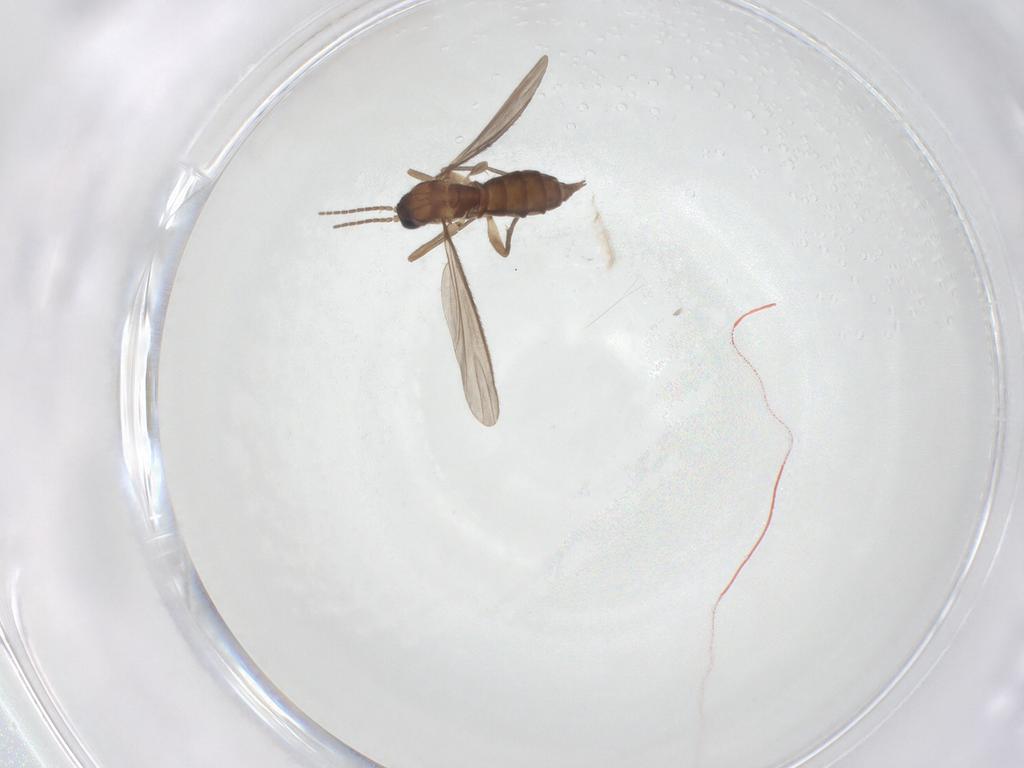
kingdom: Animalia
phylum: Arthropoda
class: Insecta
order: Diptera
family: Sciaridae
